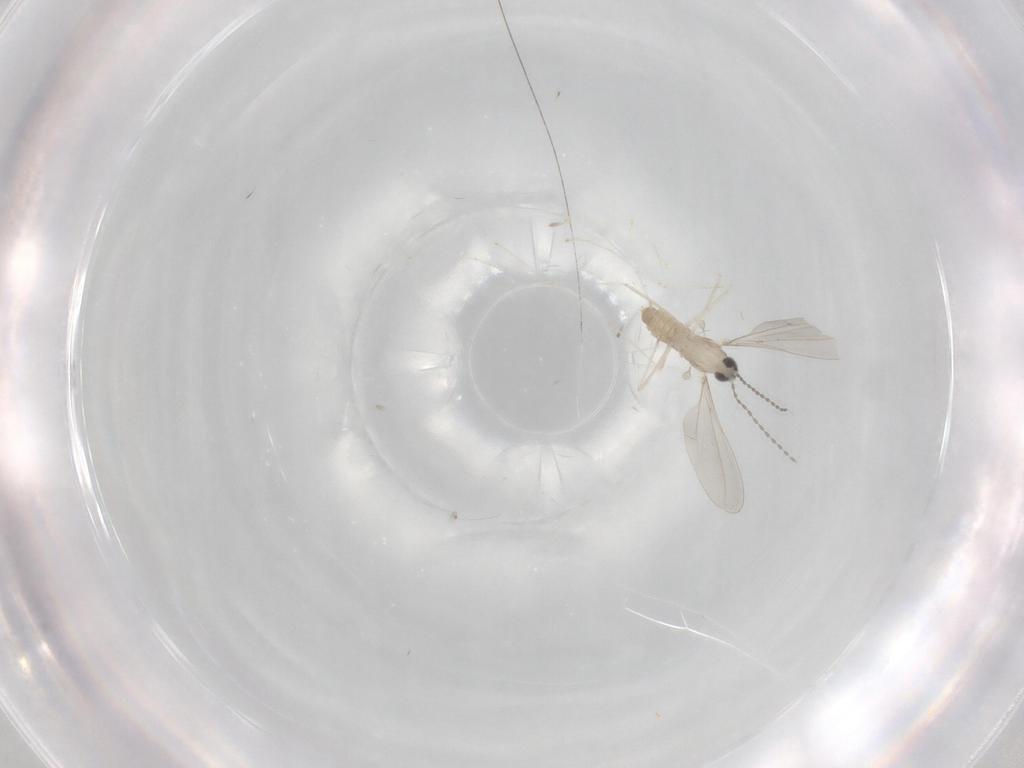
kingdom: Animalia
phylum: Arthropoda
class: Insecta
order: Diptera
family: Cecidomyiidae
